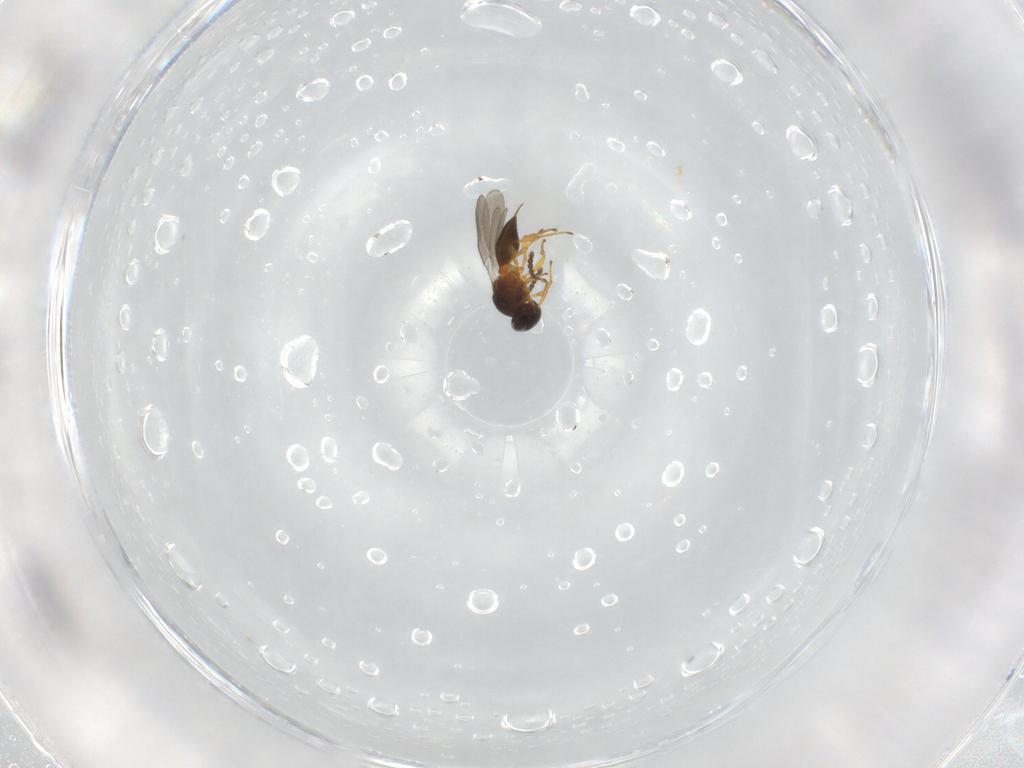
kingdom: Animalia
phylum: Arthropoda
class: Insecta
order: Hymenoptera
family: Platygastridae
